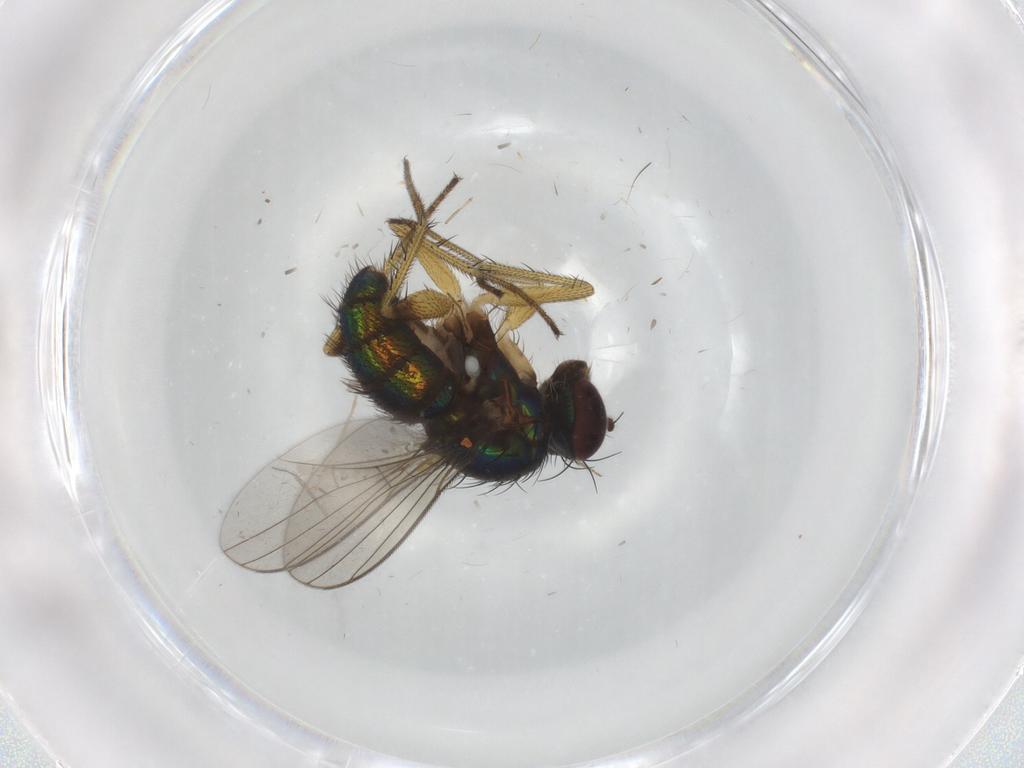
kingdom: Animalia
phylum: Arthropoda
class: Insecta
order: Diptera
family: Dolichopodidae
